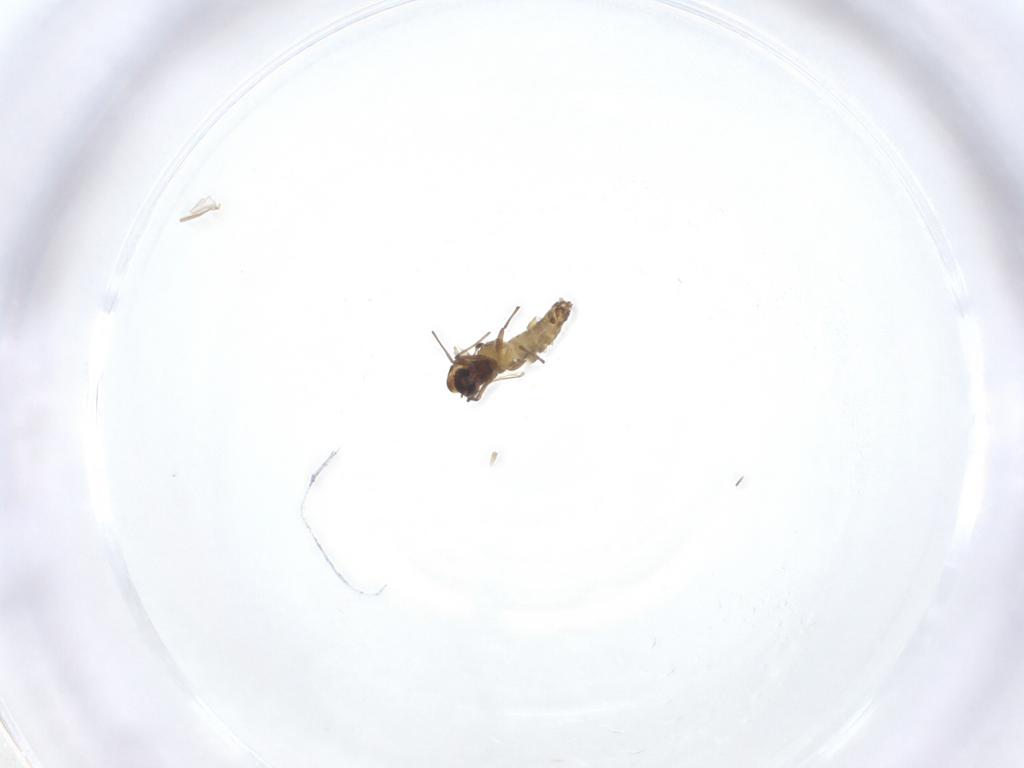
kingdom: Animalia
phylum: Arthropoda
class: Insecta
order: Diptera
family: Chironomidae
